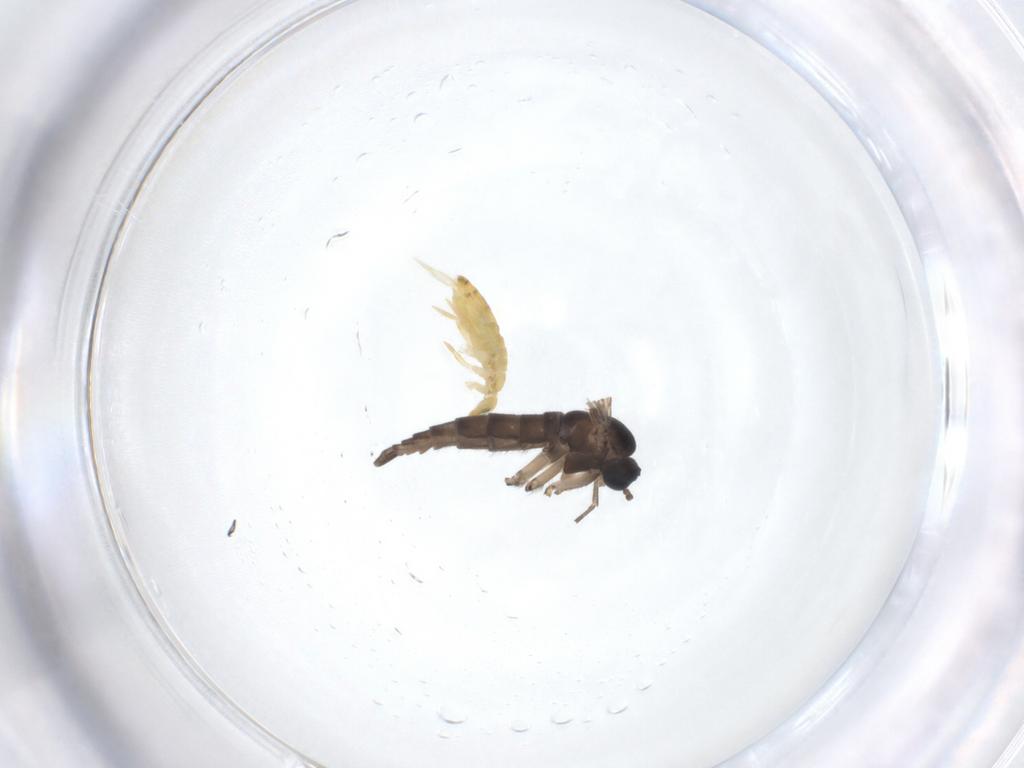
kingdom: Animalia
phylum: Arthropoda
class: Insecta
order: Diptera
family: Sciaridae
